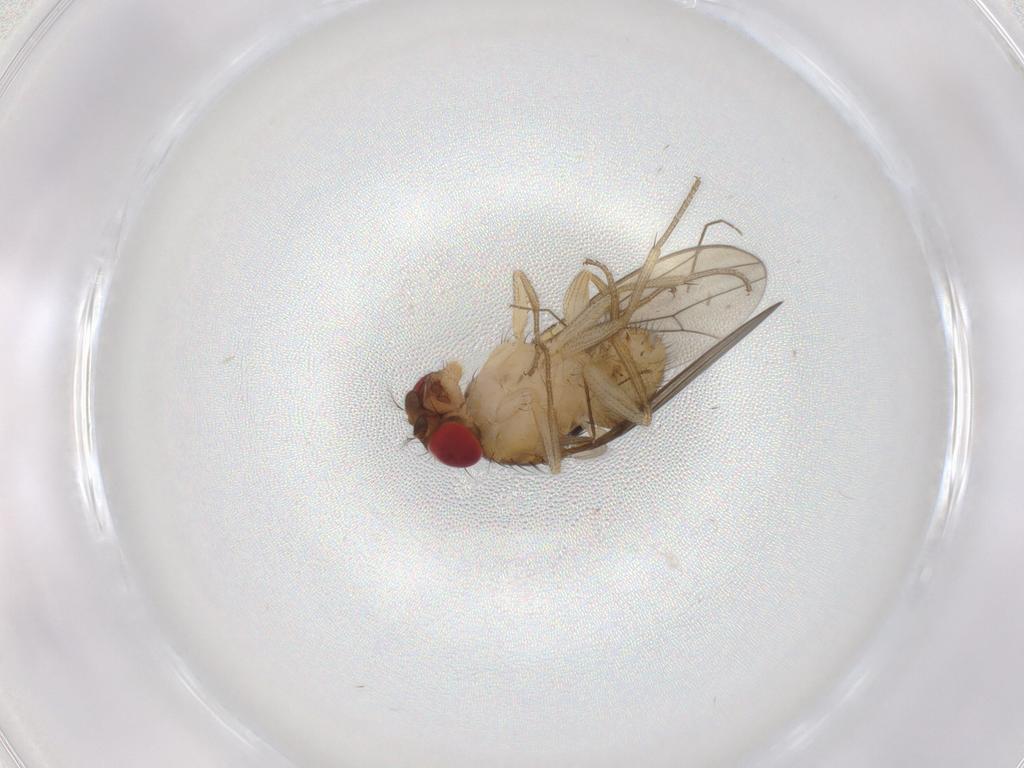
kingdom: Animalia
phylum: Arthropoda
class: Insecta
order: Diptera
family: Drosophilidae
